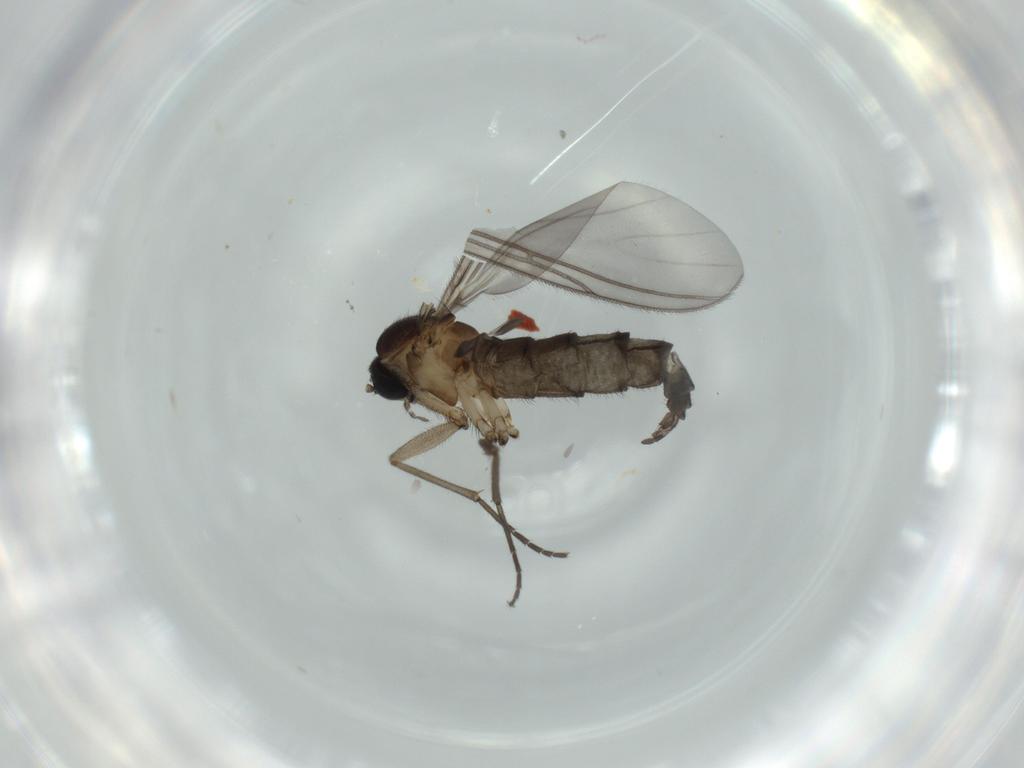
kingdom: Animalia
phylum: Arthropoda
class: Insecta
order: Diptera
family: Sciaridae
